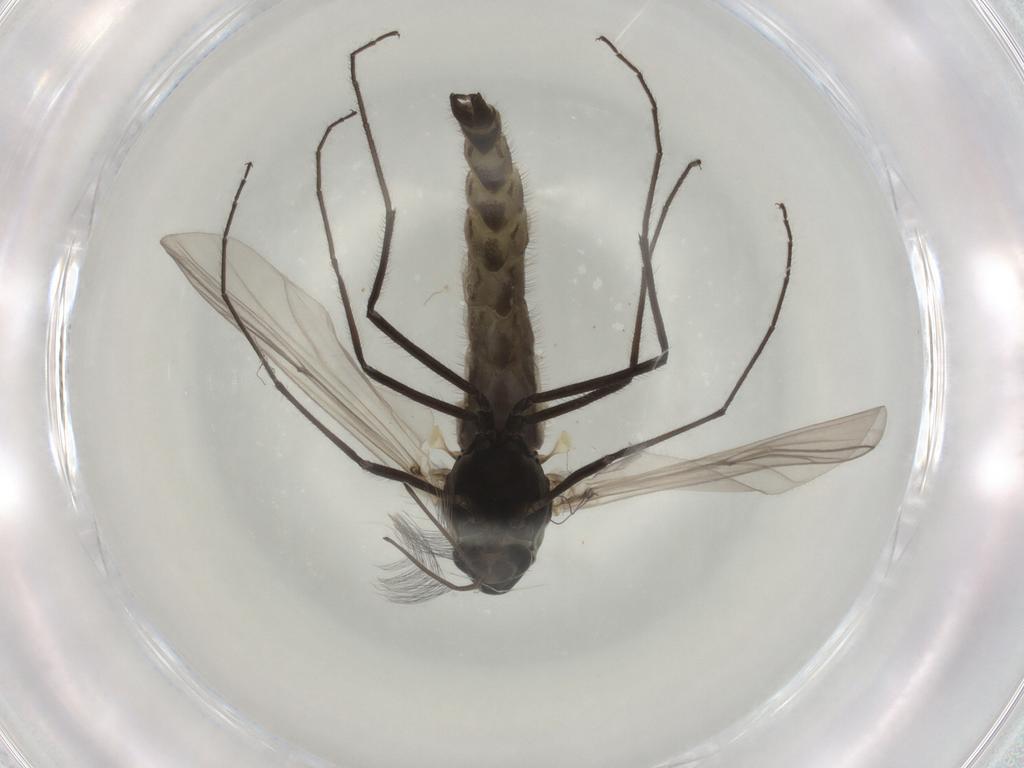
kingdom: Animalia
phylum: Arthropoda
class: Insecta
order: Diptera
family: Chironomidae
